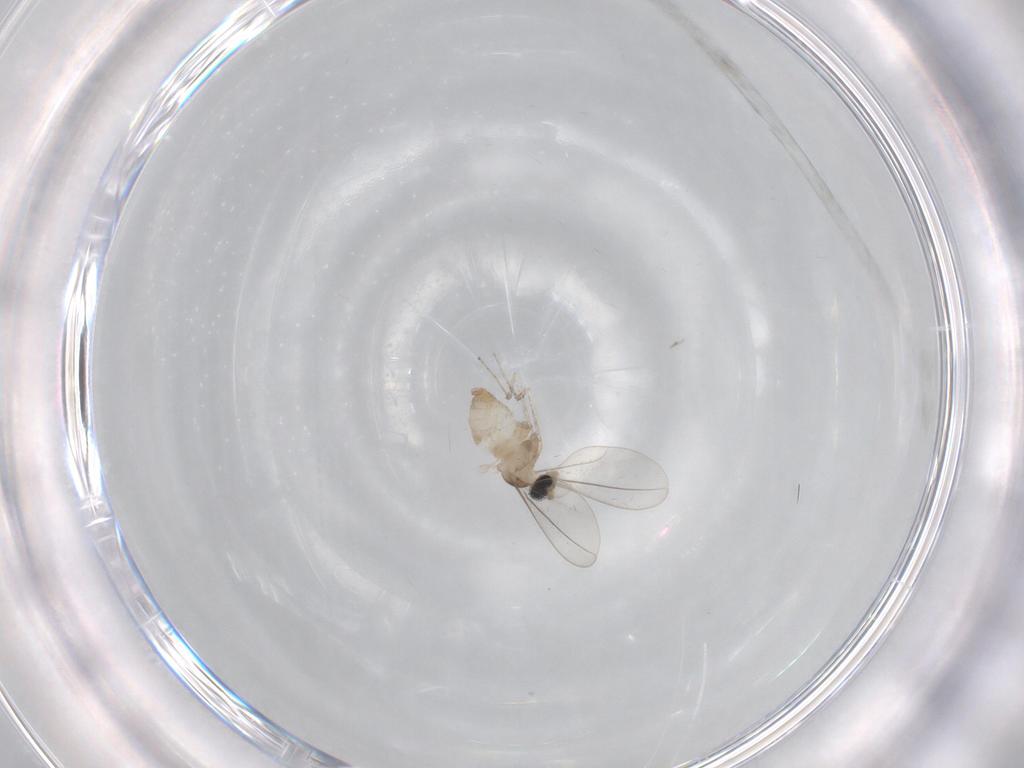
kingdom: Animalia
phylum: Arthropoda
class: Insecta
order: Diptera
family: Cecidomyiidae
